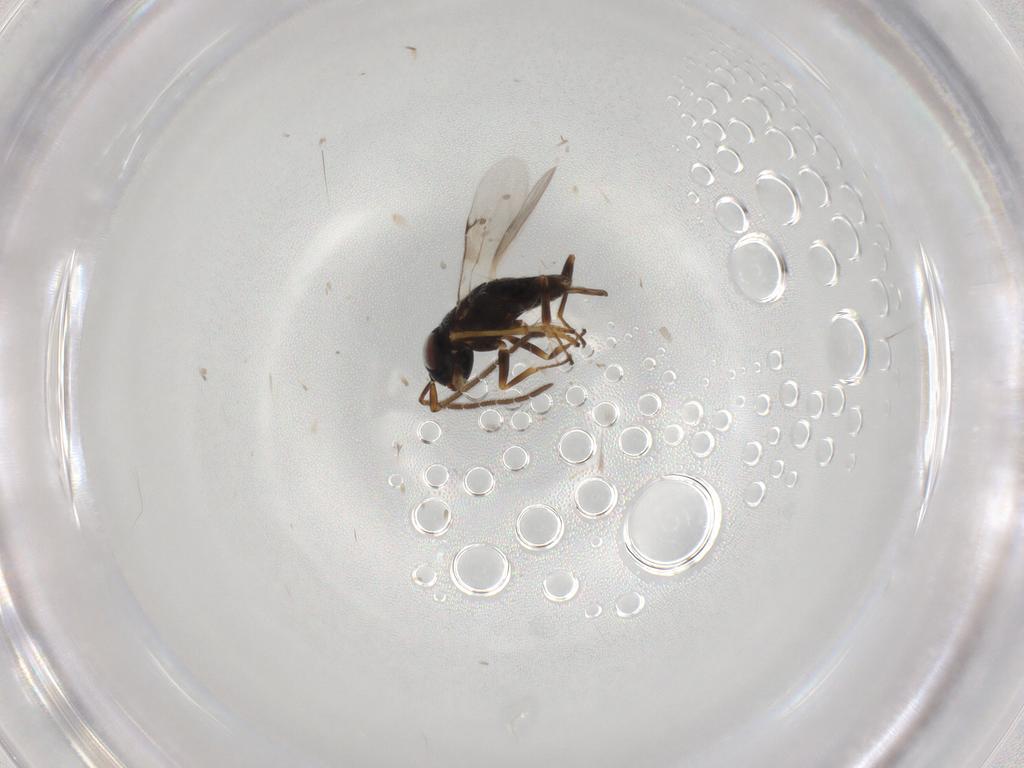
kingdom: Animalia
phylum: Arthropoda
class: Insecta
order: Hymenoptera
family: Encyrtidae
